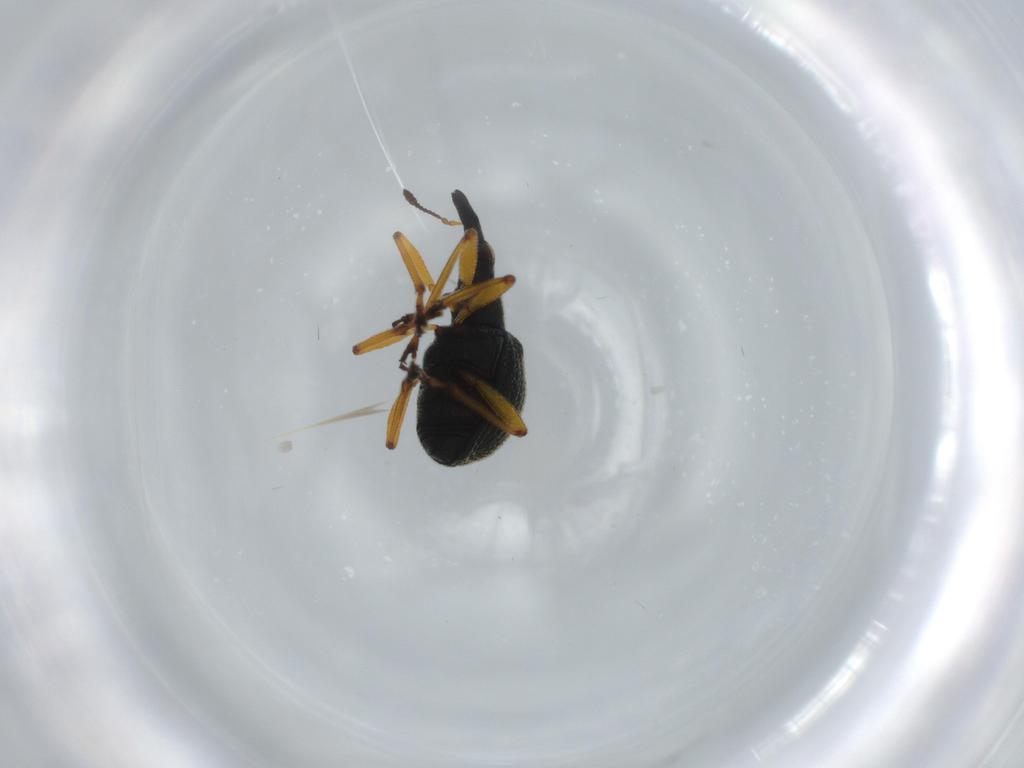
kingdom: Animalia
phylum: Arthropoda
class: Insecta
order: Coleoptera
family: Brentidae
